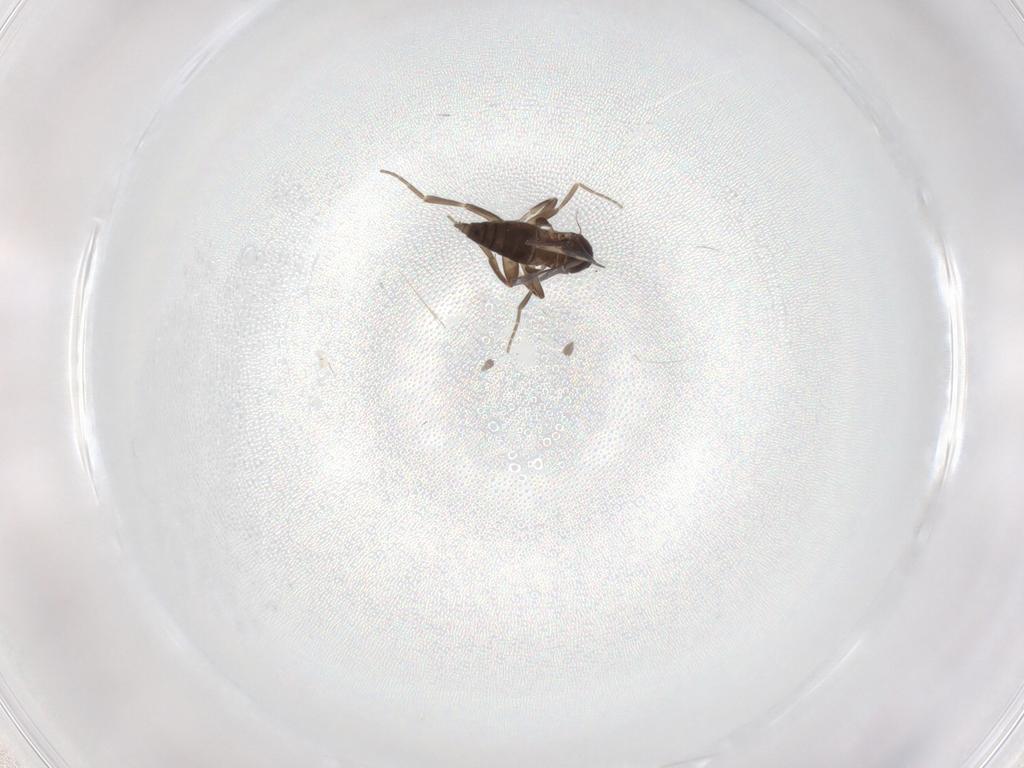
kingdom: Animalia
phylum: Arthropoda
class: Insecta
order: Diptera
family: Phoridae
